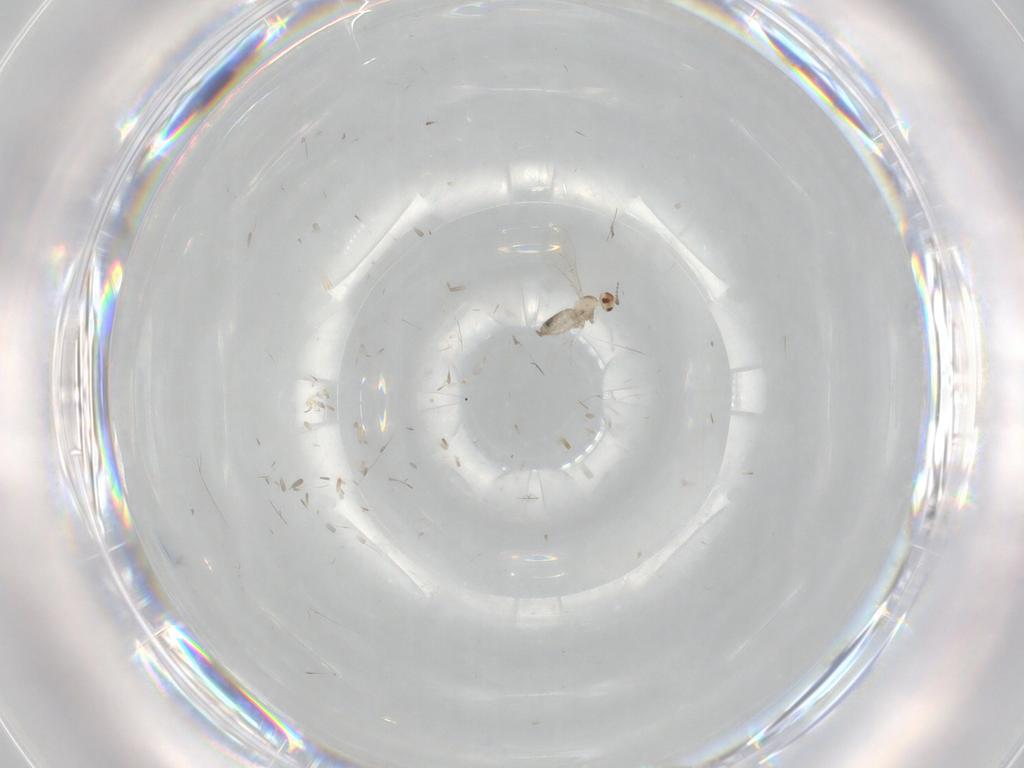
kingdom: Animalia
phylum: Arthropoda
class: Insecta
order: Diptera
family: Cecidomyiidae
